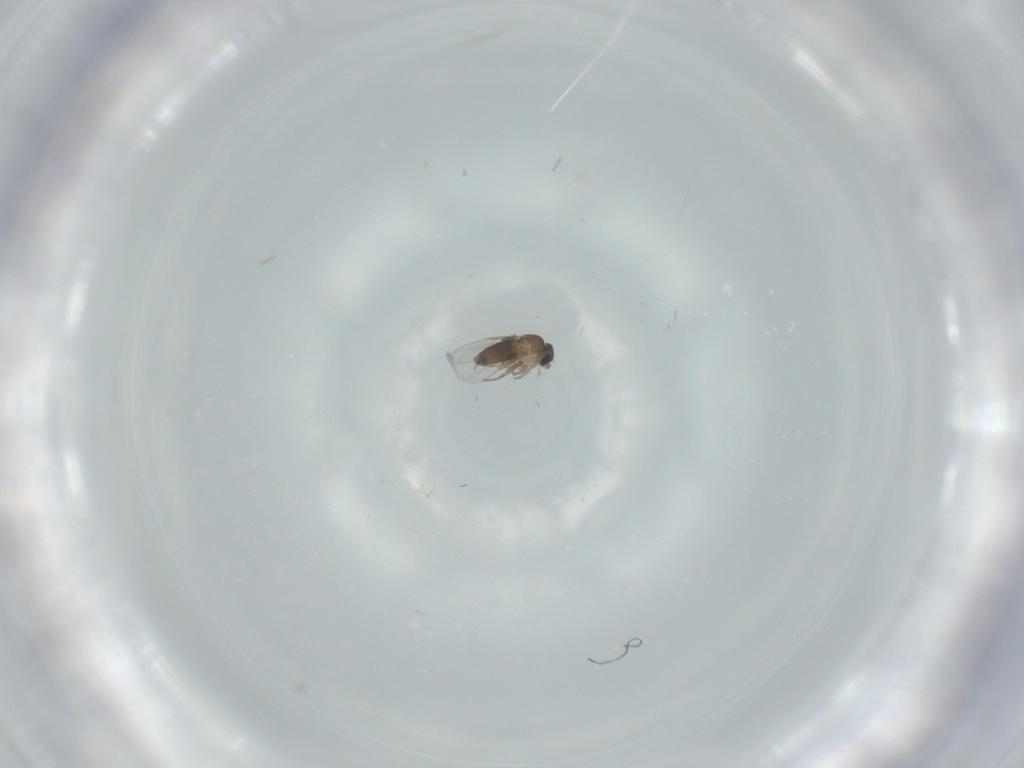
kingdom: Animalia
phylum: Arthropoda
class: Insecta
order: Diptera
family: Phoridae
